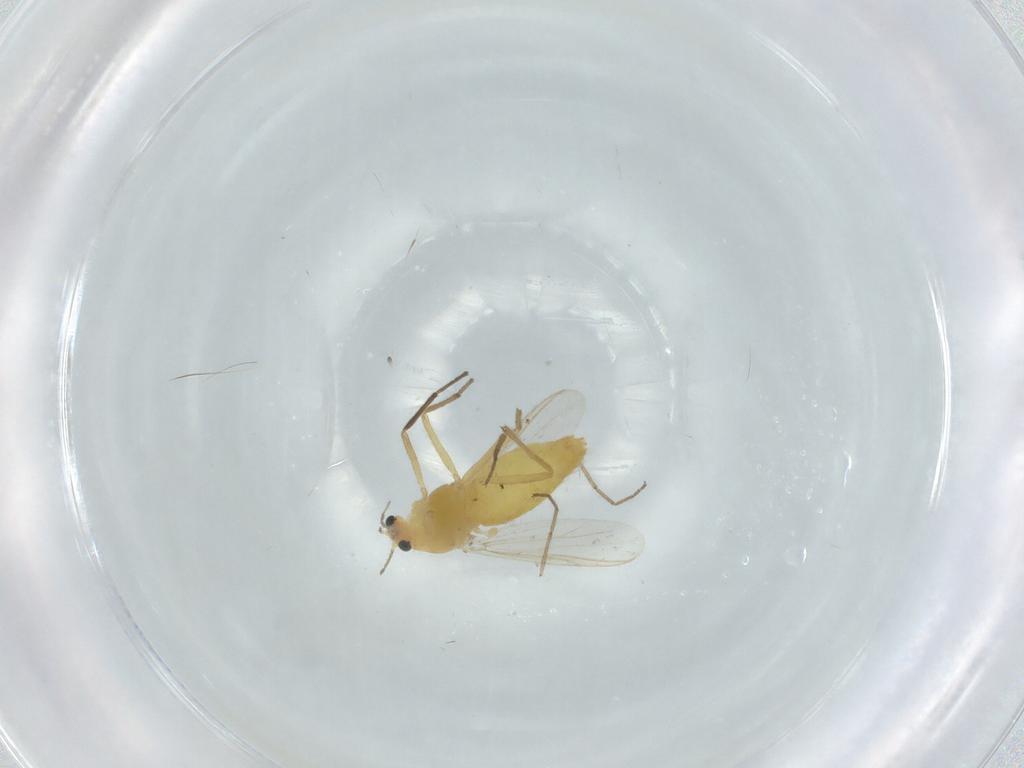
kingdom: Animalia
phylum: Arthropoda
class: Insecta
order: Diptera
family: Chironomidae
